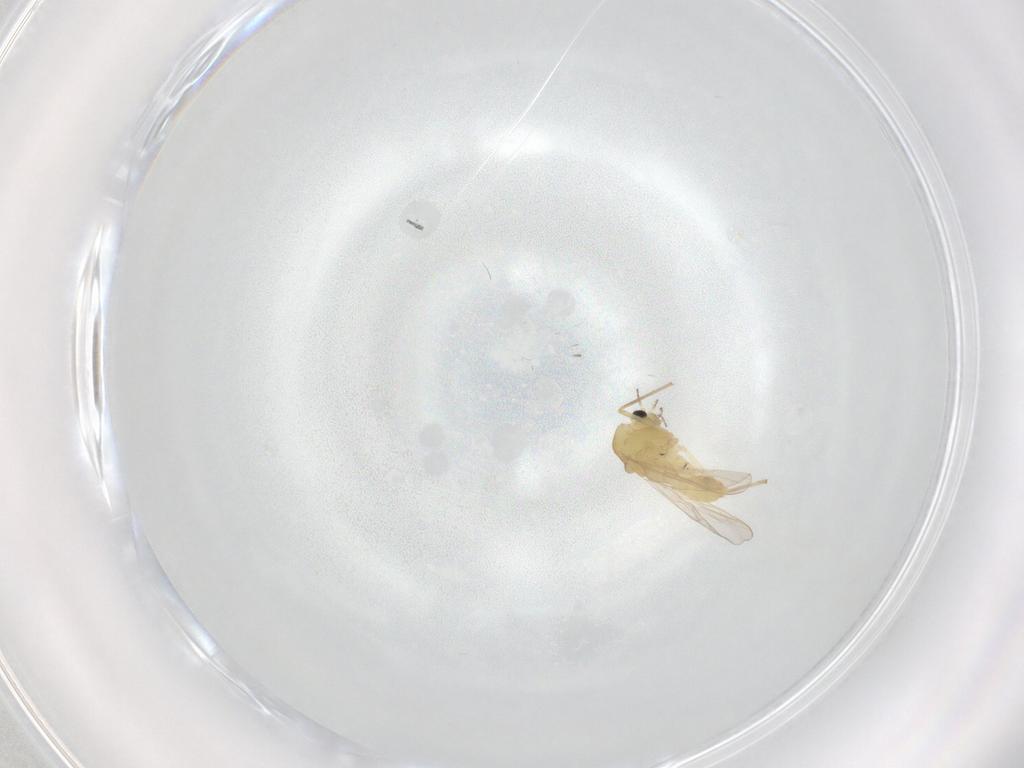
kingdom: Animalia
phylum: Arthropoda
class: Insecta
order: Diptera
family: Chironomidae
